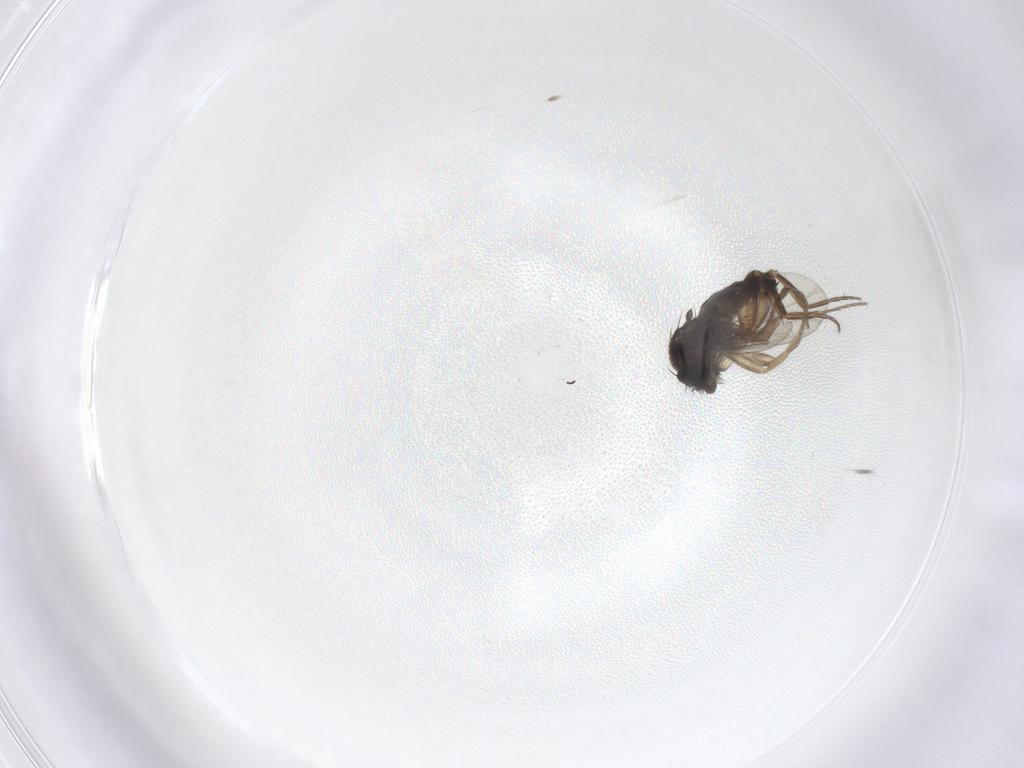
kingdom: Animalia
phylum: Arthropoda
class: Insecta
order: Diptera
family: Phoridae
